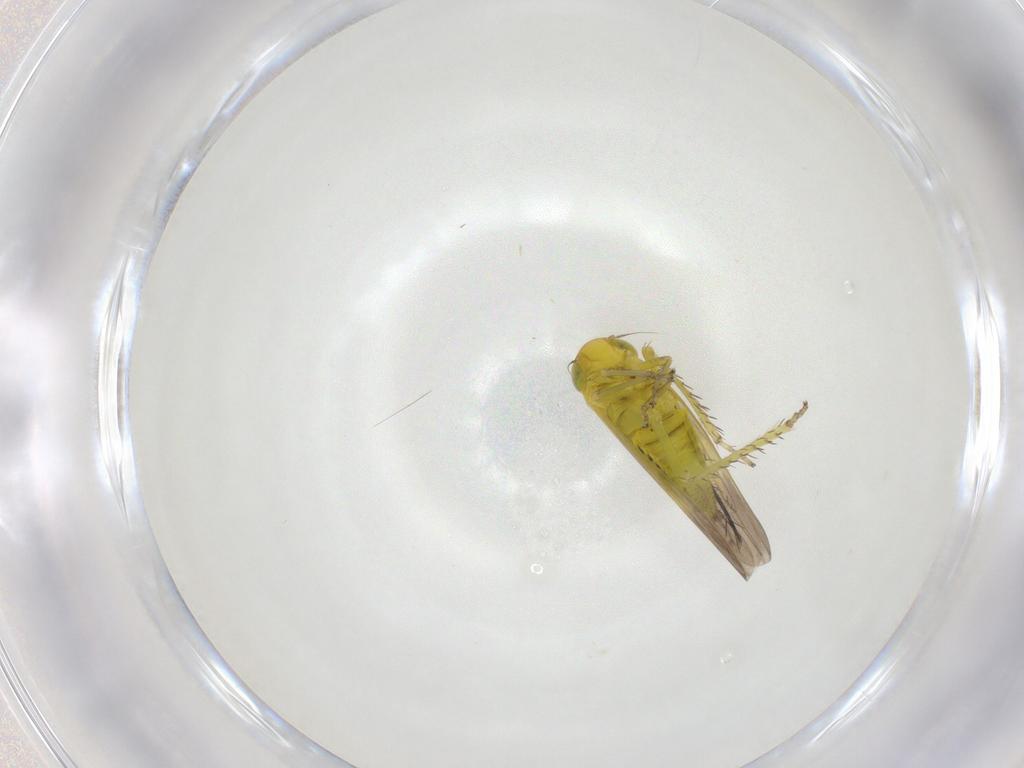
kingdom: Animalia
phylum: Arthropoda
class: Insecta
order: Hemiptera
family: Cicadellidae
